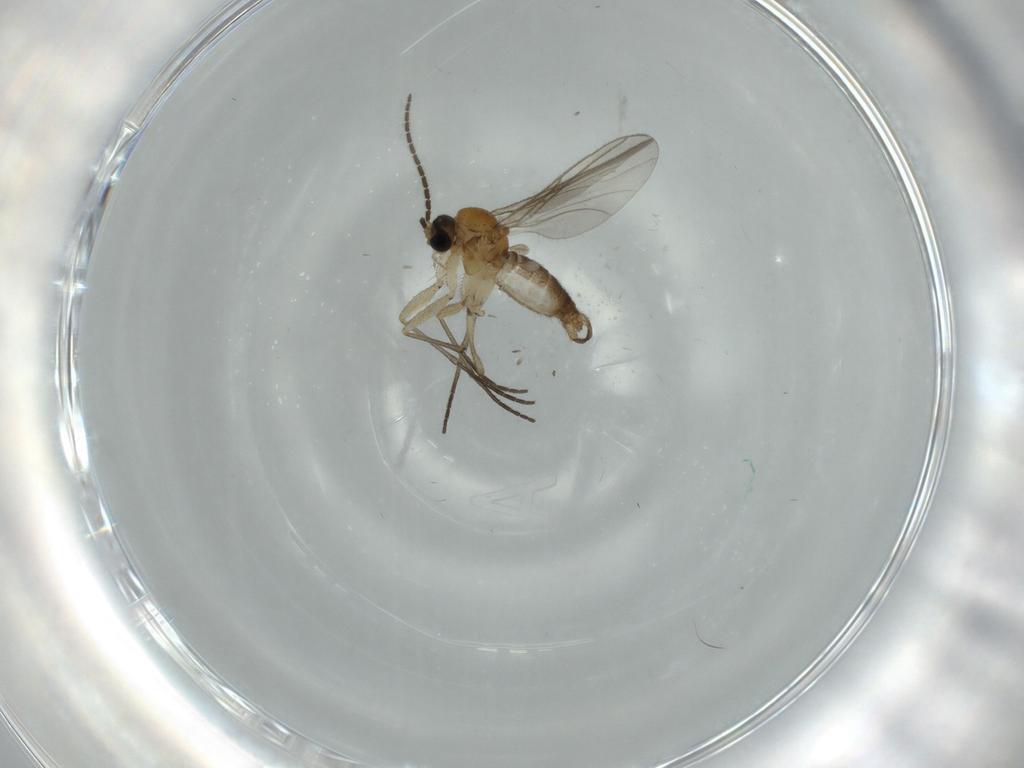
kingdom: Animalia
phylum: Arthropoda
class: Insecta
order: Diptera
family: Sciaridae
